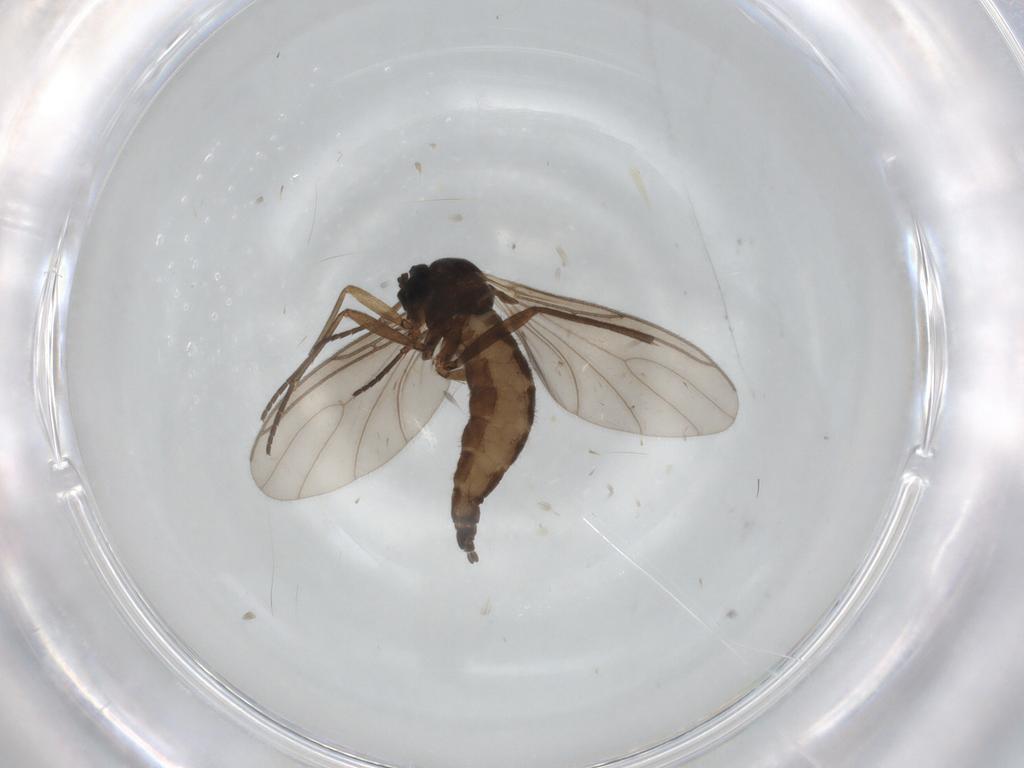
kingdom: Animalia
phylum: Arthropoda
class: Insecta
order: Diptera
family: Sciaridae
